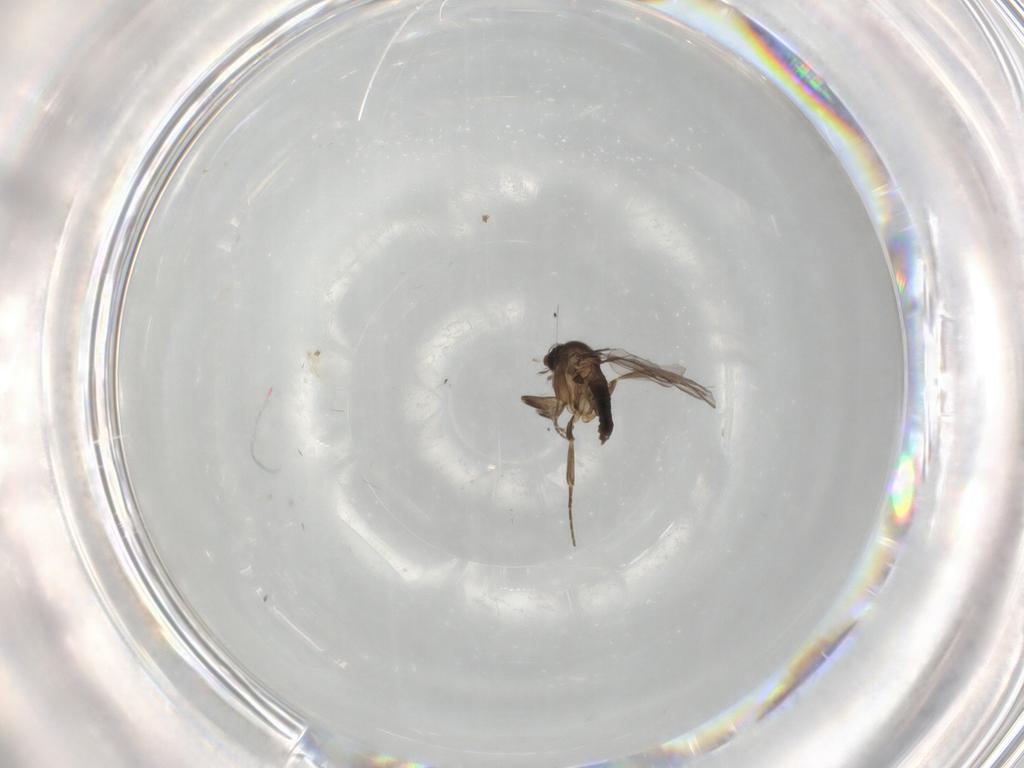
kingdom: Animalia
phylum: Arthropoda
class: Insecta
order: Diptera
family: Phoridae
